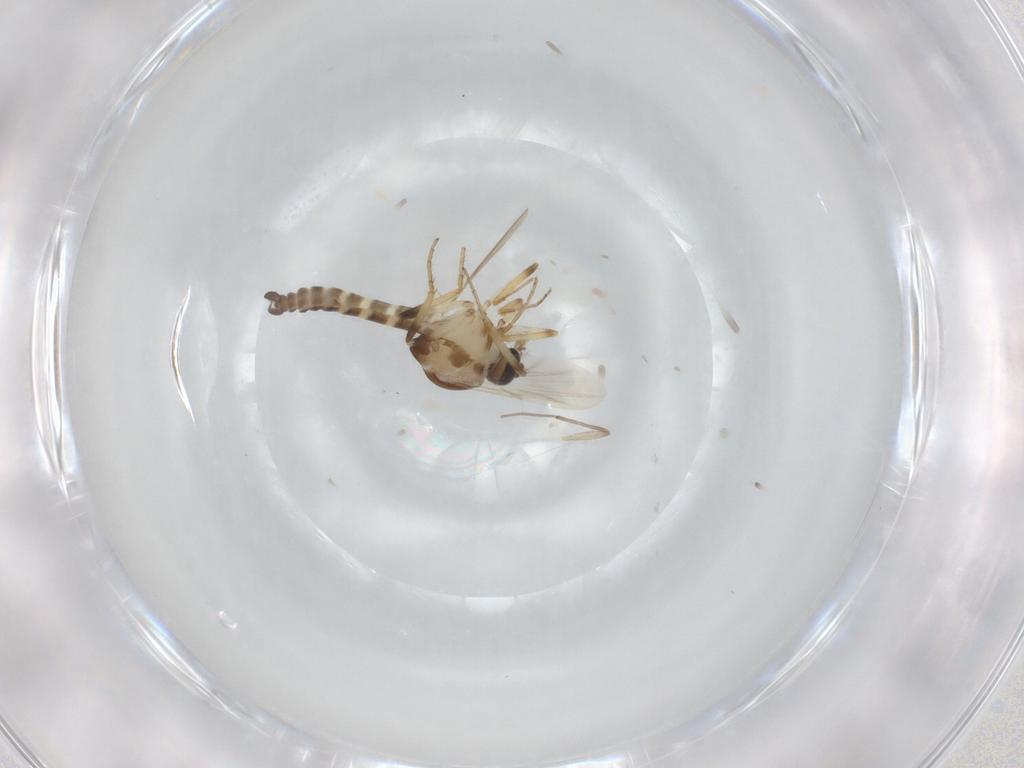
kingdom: Animalia
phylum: Arthropoda
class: Insecta
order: Diptera
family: Ceratopogonidae
